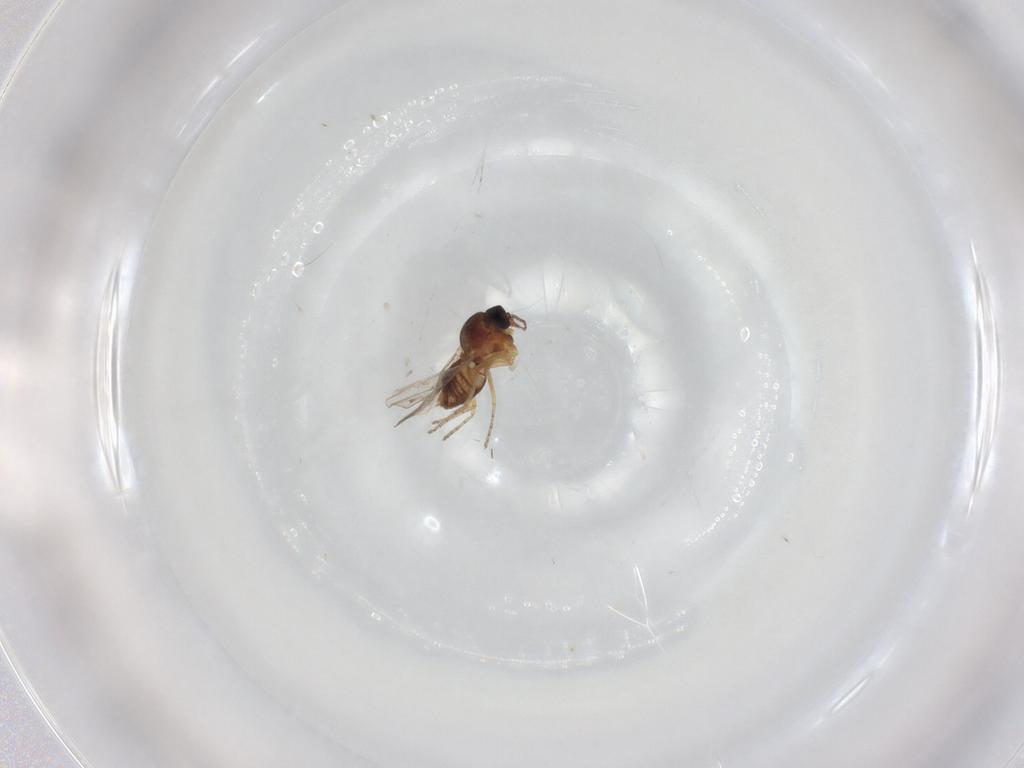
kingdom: Animalia
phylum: Arthropoda
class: Insecta
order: Diptera
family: Ceratopogonidae
